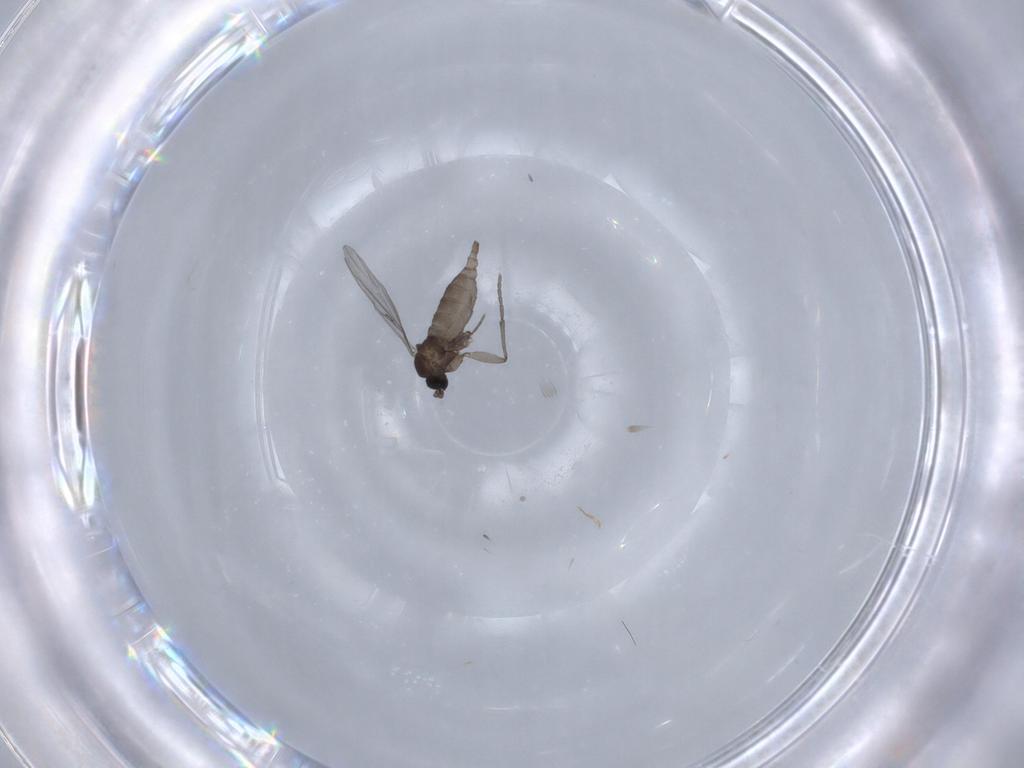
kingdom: Animalia
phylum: Arthropoda
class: Insecta
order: Diptera
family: Sciaridae
